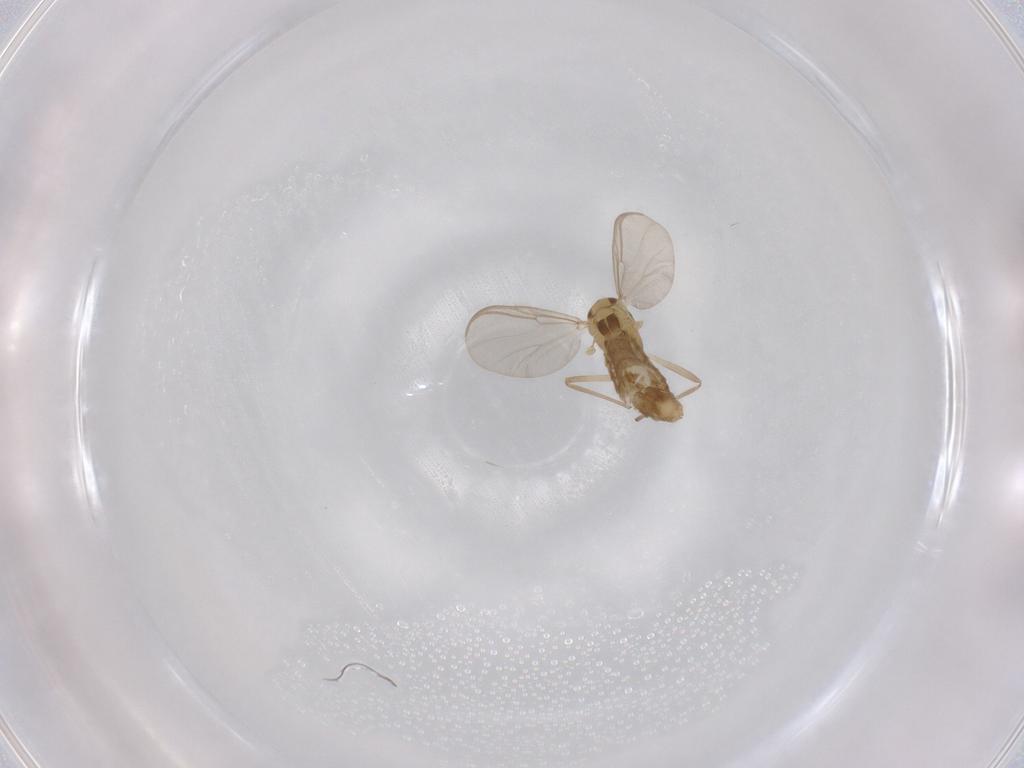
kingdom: Animalia
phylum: Arthropoda
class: Insecta
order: Diptera
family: Chironomidae
